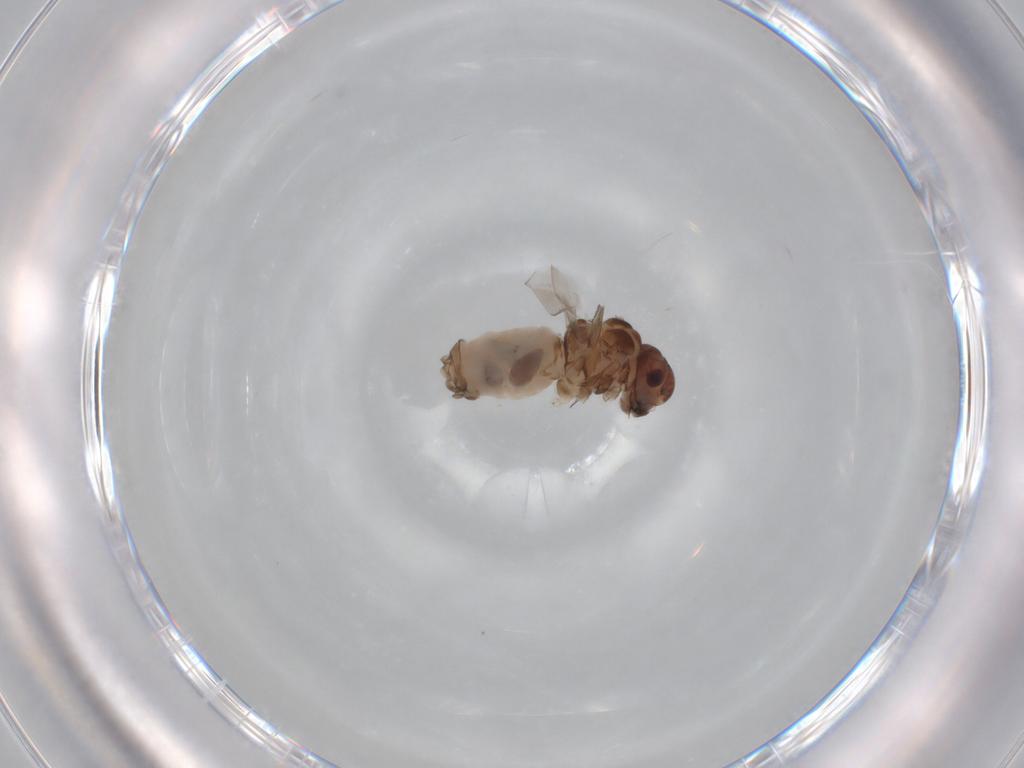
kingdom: Animalia
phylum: Arthropoda
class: Insecta
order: Psocodea
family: Peripsocidae
